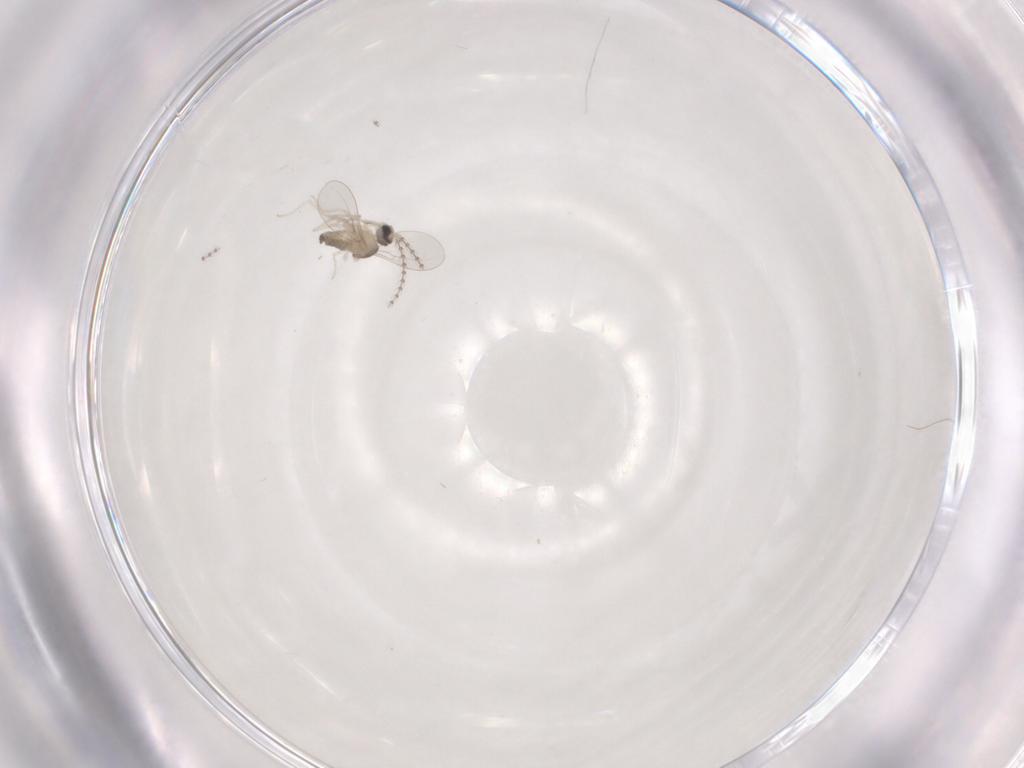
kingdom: Animalia
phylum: Arthropoda
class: Insecta
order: Diptera
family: Cecidomyiidae
